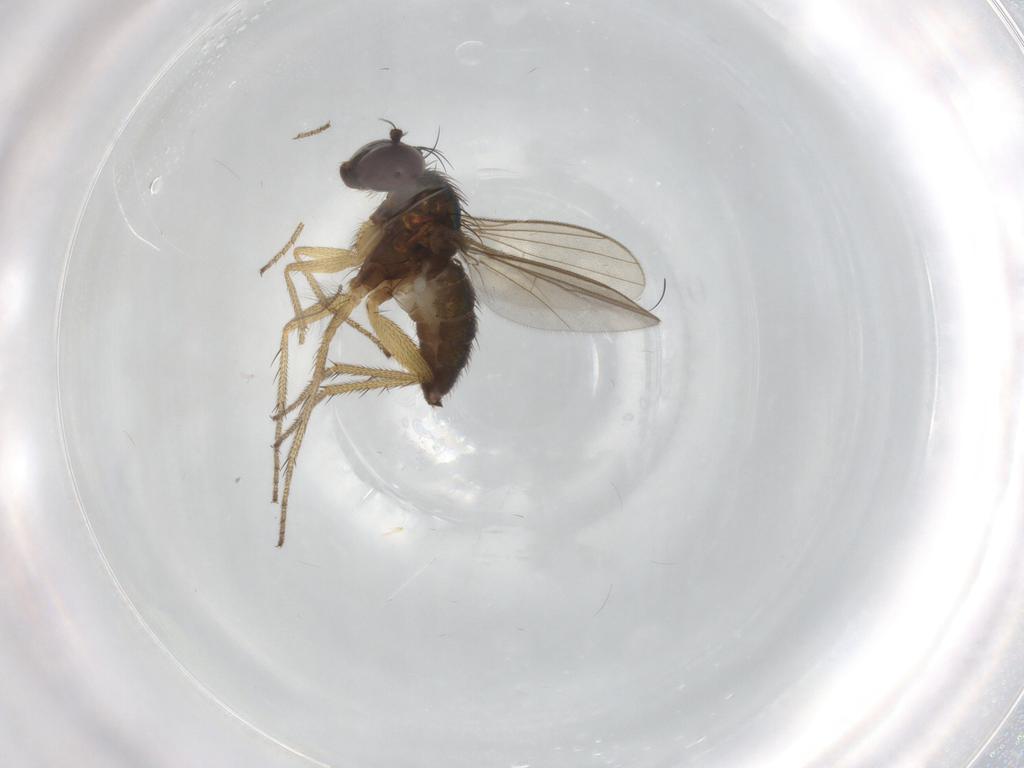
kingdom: Animalia
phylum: Arthropoda
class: Insecta
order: Diptera
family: Chironomidae
